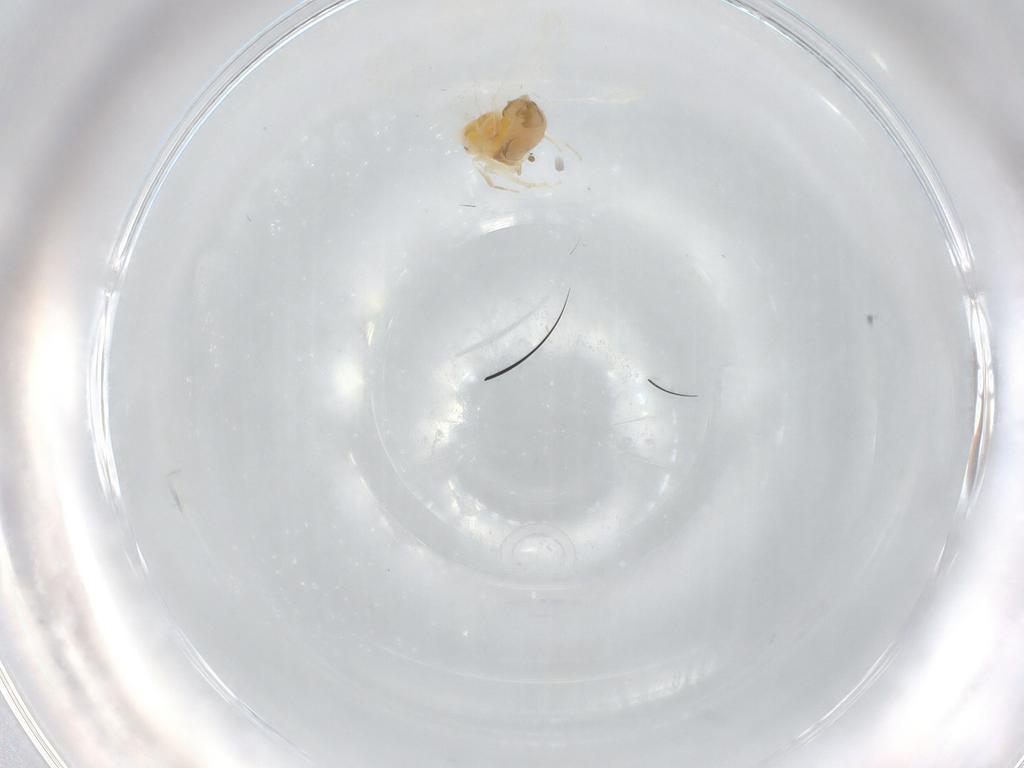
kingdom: Animalia
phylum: Arthropoda
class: Insecta
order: Hemiptera
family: Aleyrodidae
